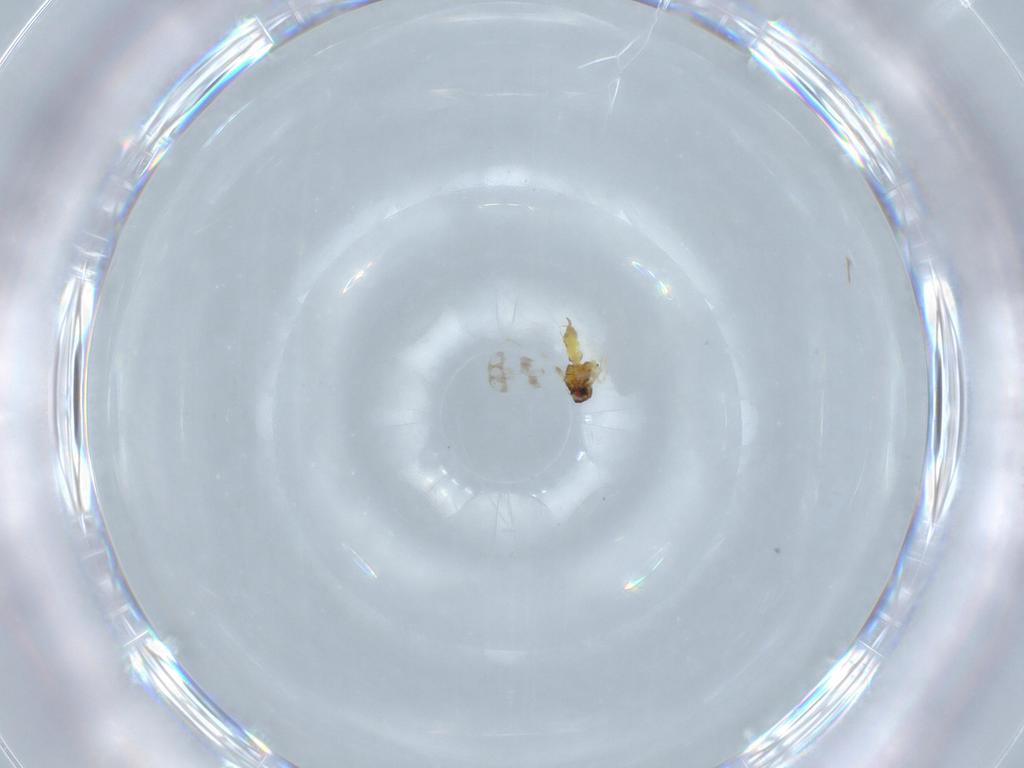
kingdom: Animalia
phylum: Arthropoda
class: Insecta
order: Hemiptera
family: Aleyrodidae
